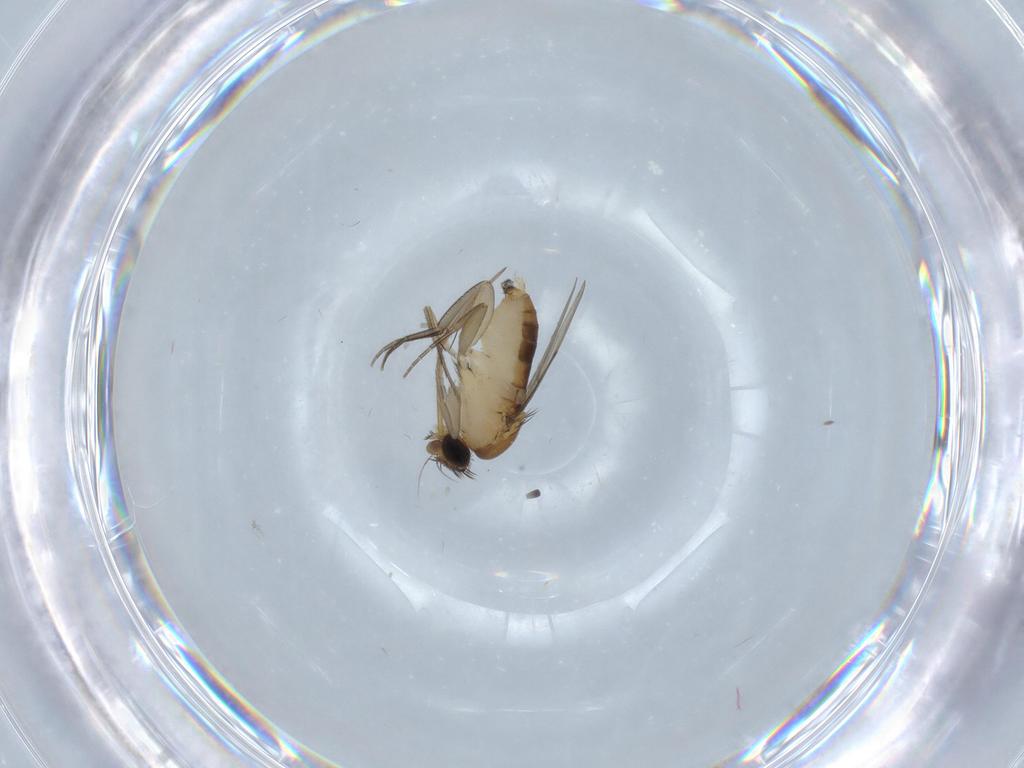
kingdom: Animalia
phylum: Arthropoda
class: Insecta
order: Diptera
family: Phoridae
